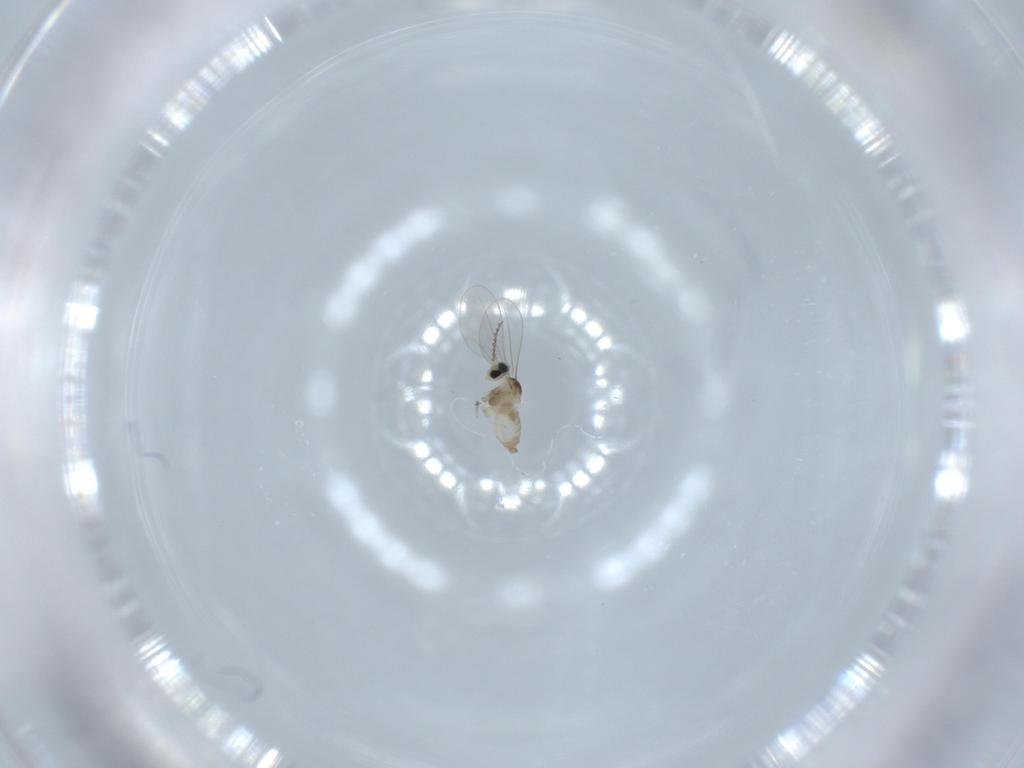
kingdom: Animalia
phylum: Arthropoda
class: Insecta
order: Diptera
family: Cecidomyiidae
